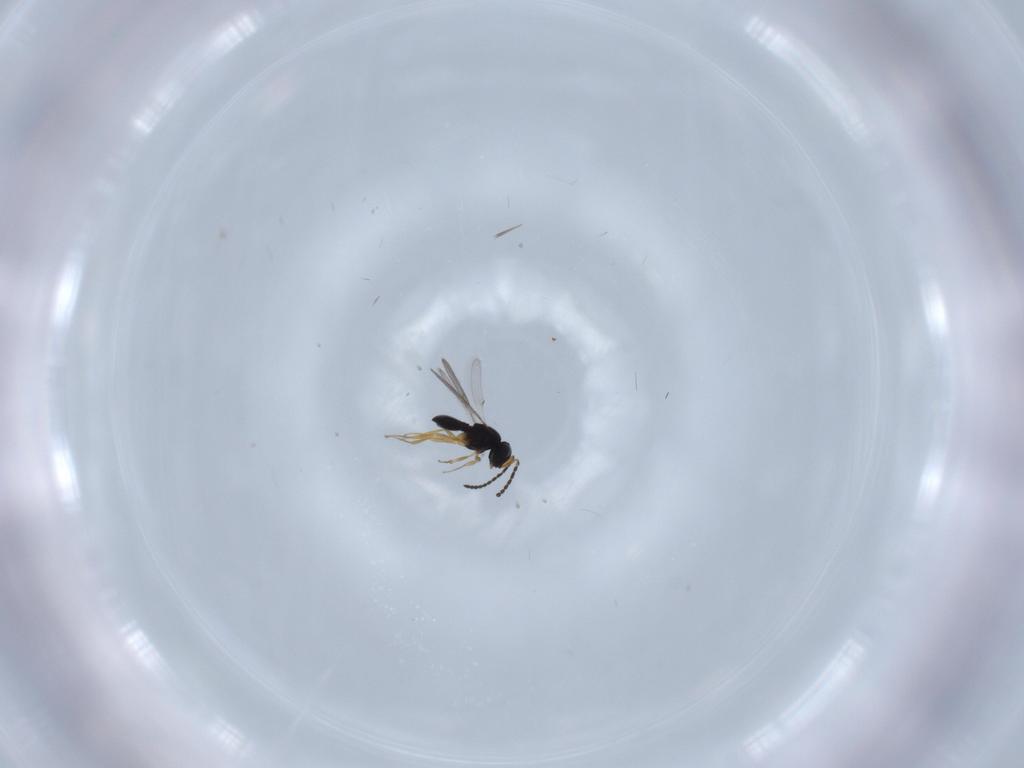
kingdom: Animalia
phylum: Arthropoda
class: Insecta
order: Hymenoptera
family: Scelionidae
